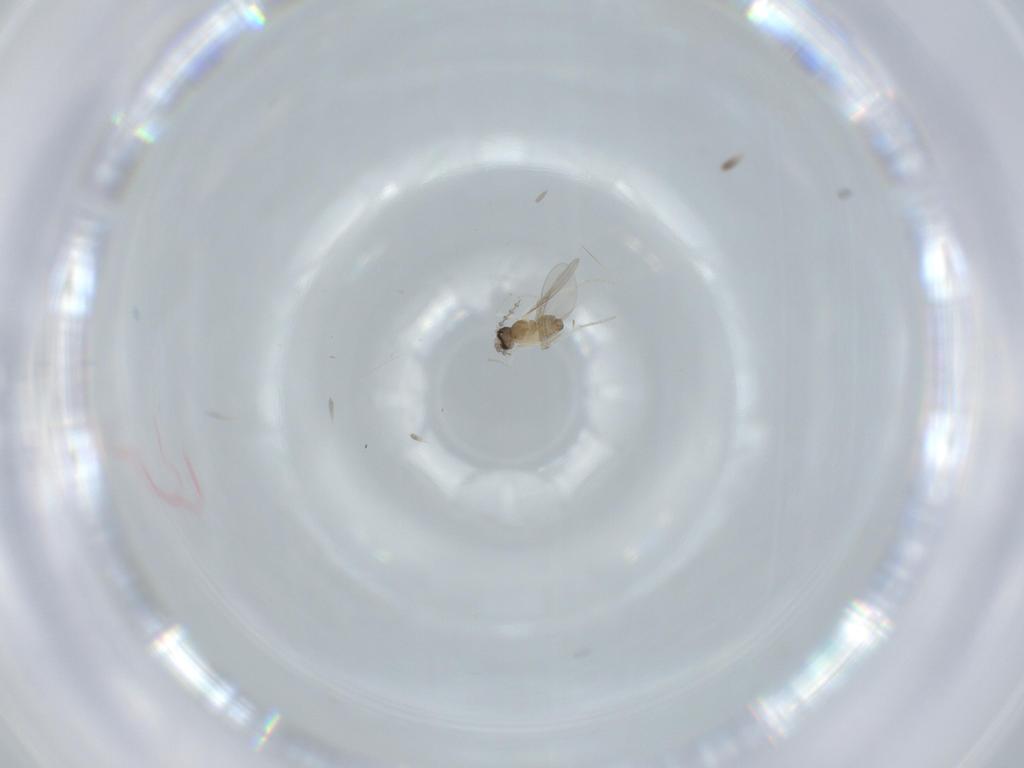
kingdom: Animalia
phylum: Arthropoda
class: Insecta
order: Diptera
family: Cecidomyiidae
